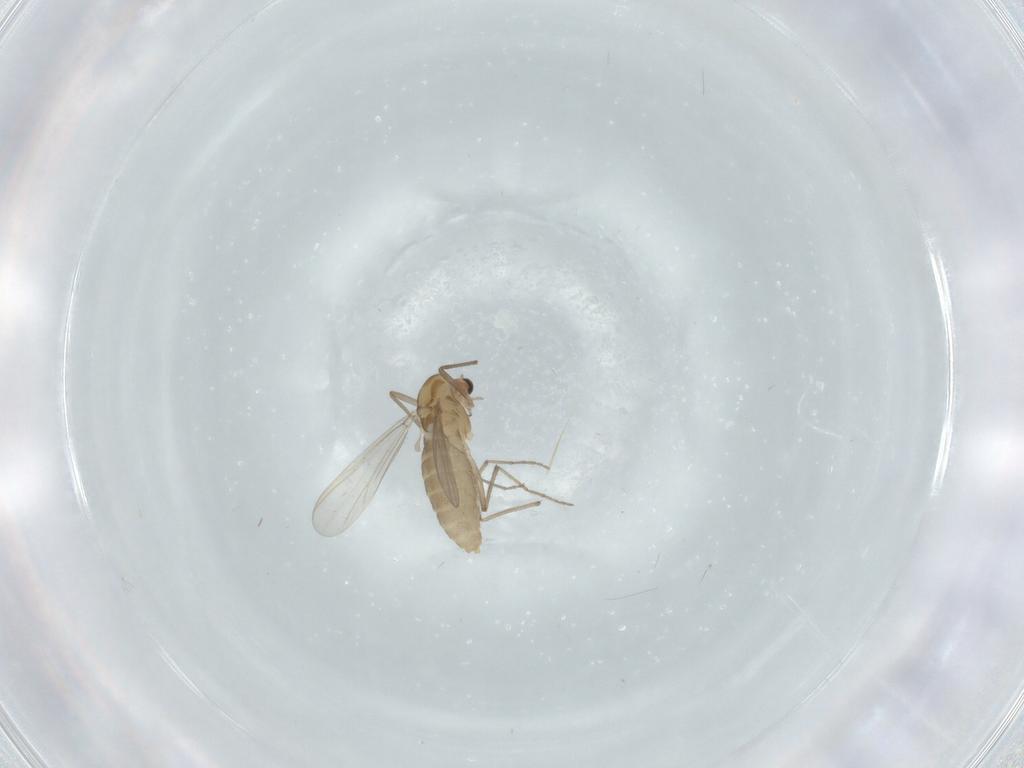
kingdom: Animalia
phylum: Arthropoda
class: Insecta
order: Diptera
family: Chironomidae
